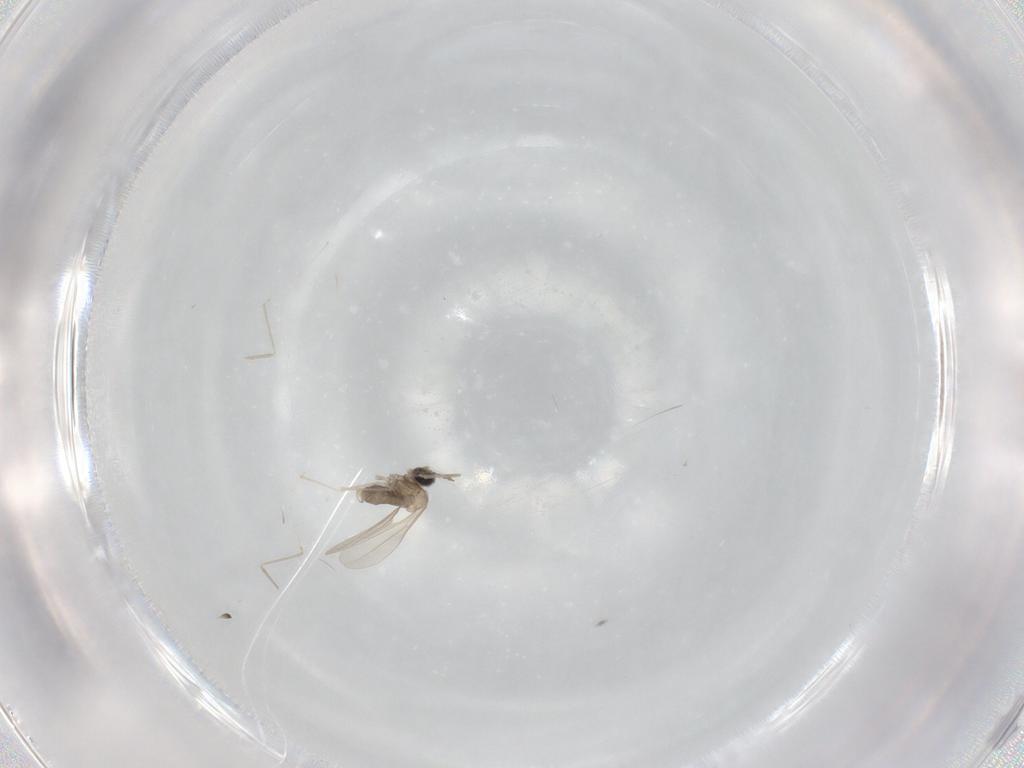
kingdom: Animalia
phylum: Arthropoda
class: Insecta
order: Diptera
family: Cecidomyiidae
